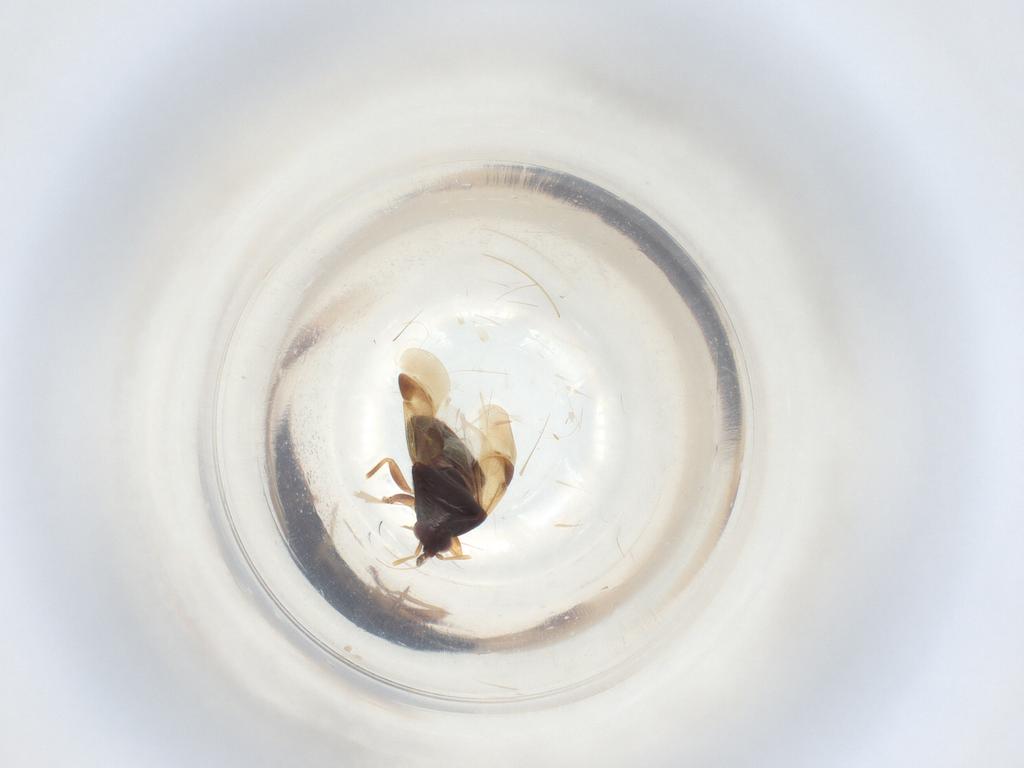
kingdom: Animalia
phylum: Arthropoda
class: Insecta
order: Hemiptera
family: Anthocoridae
